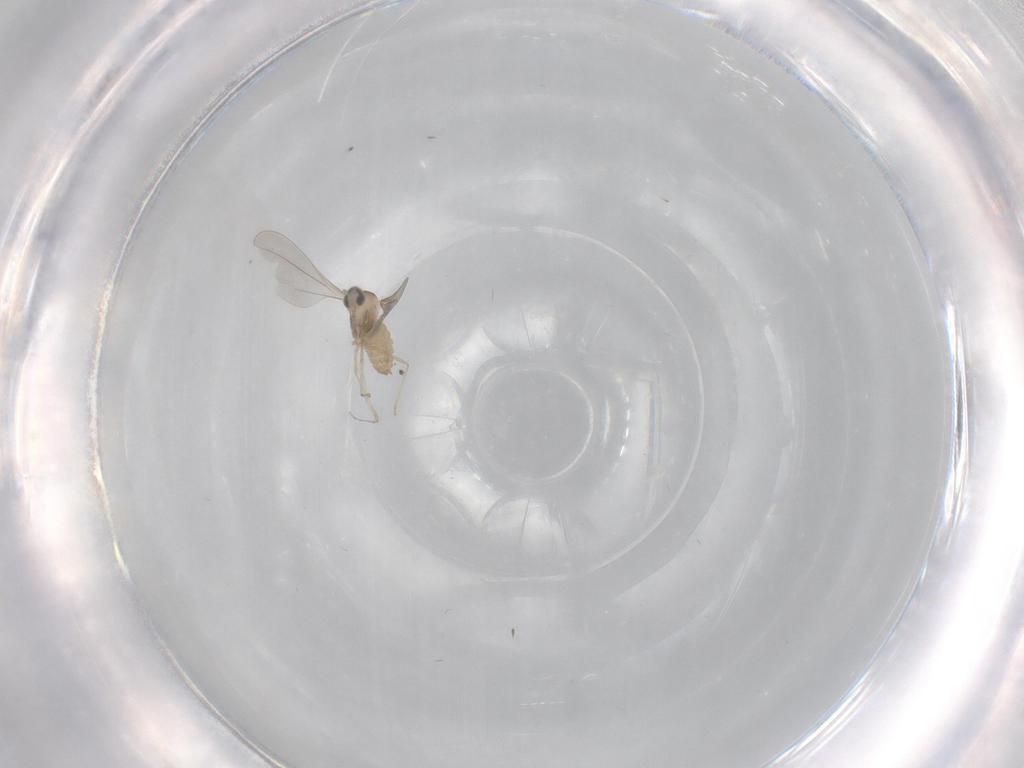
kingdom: Animalia
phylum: Arthropoda
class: Insecta
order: Diptera
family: Cecidomyiidae
